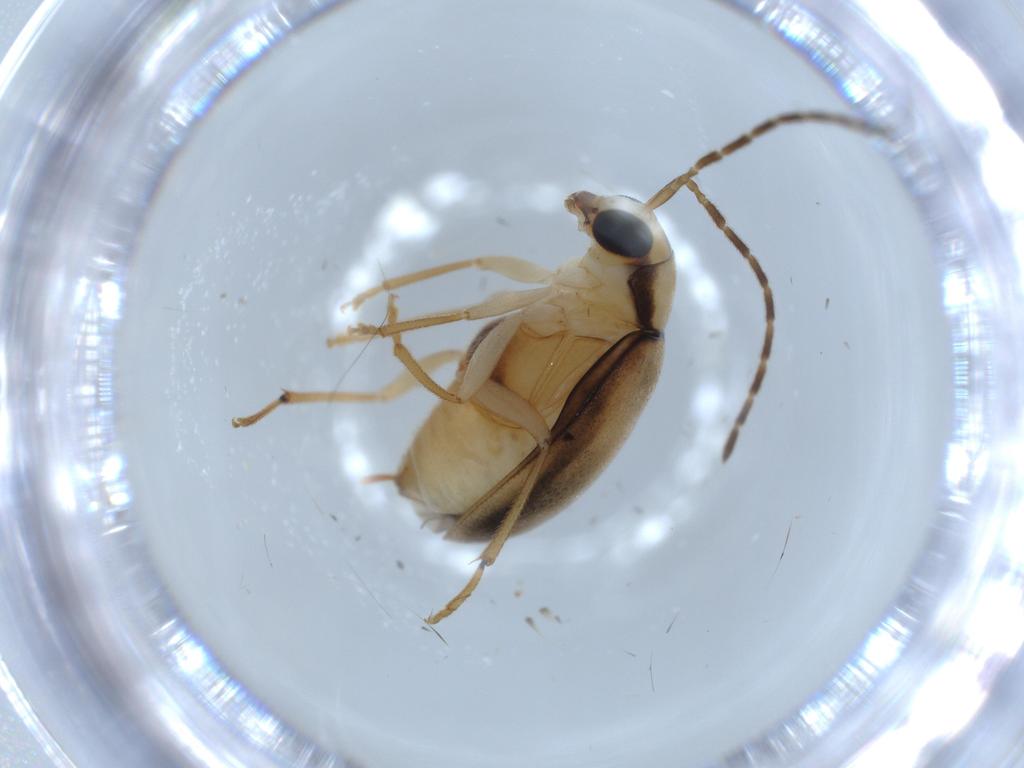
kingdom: Animalia
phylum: Arthropoda
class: Insecta
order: Coleoptera
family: Chrysomelidae
